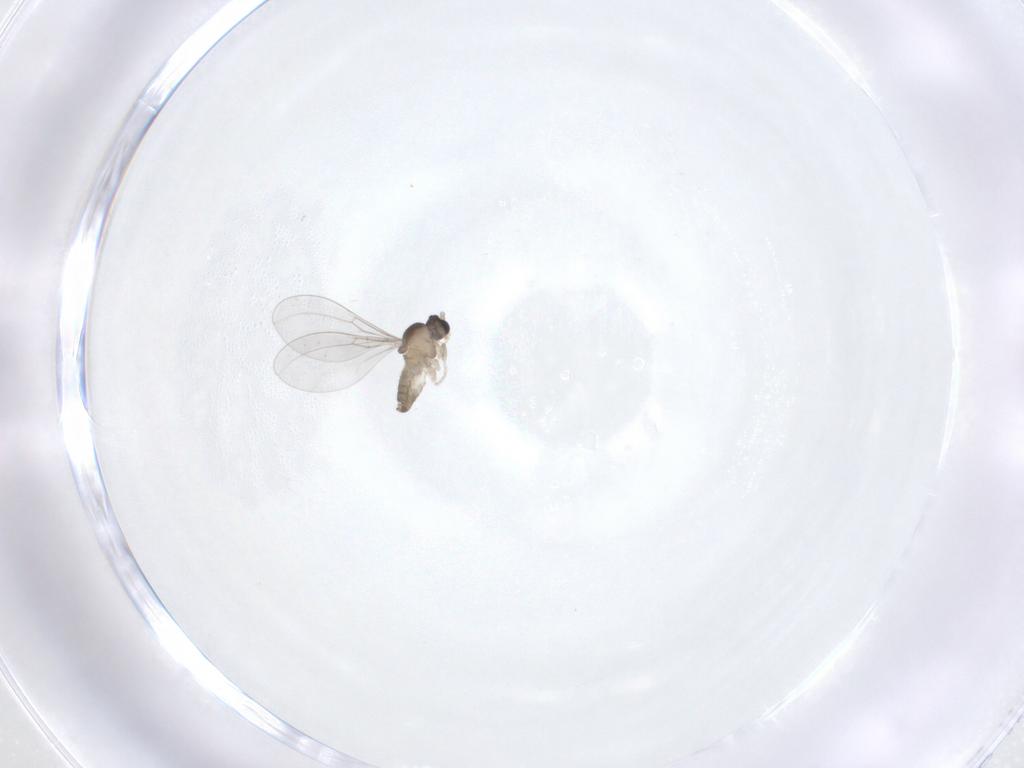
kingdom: Animalia
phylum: Arthropoda
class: Insecta
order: Diptera
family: Cecidomyiidae
